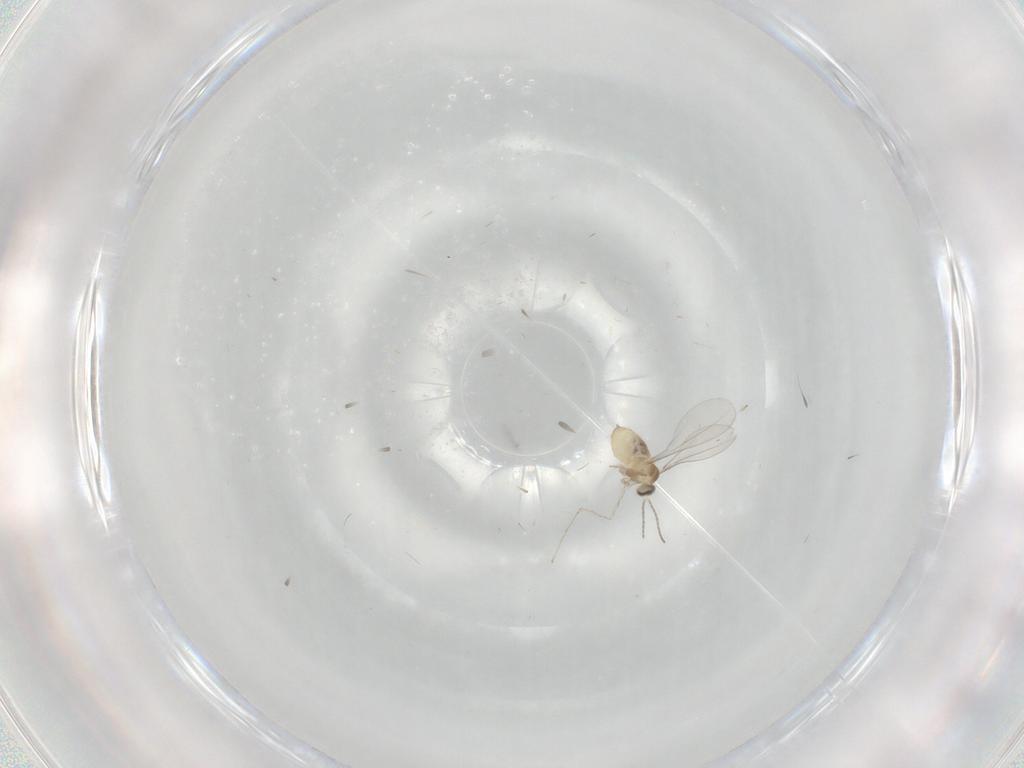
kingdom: Animalia
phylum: Arthropoda
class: Insecta
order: Diptera
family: Cecidomyiidae
